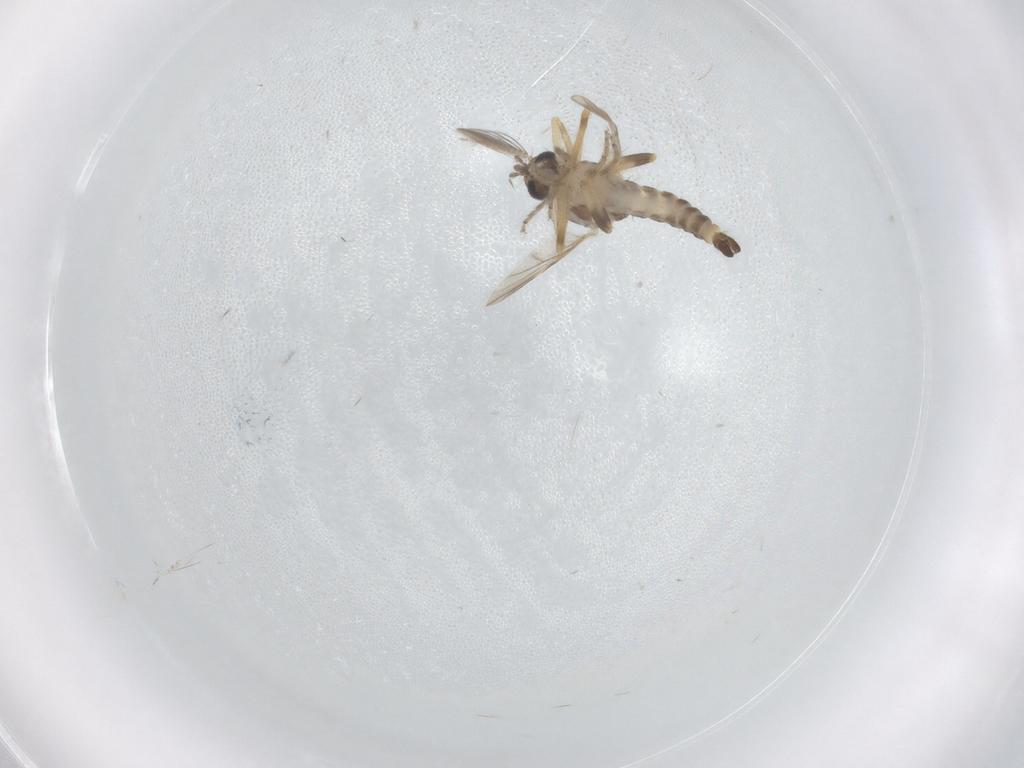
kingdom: Animalia
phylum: Arthropoda
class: Insecta
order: Diptera
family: Ceratopogonidae
